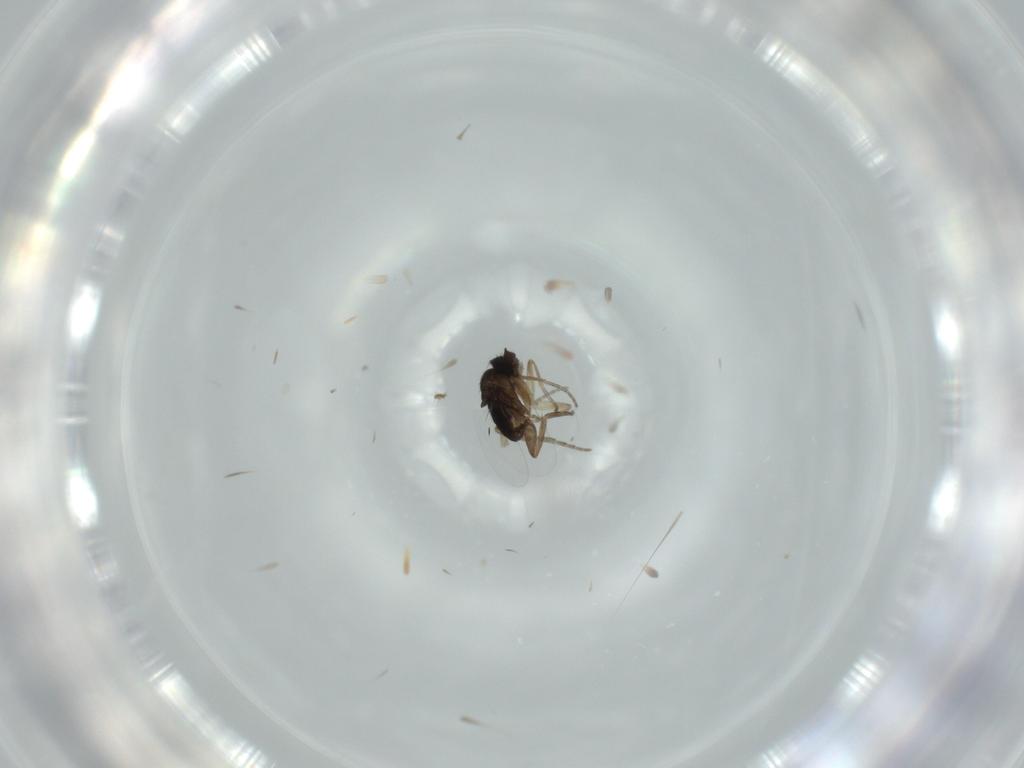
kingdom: Animalia
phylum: Arthropoda
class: Insecta
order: Diptera
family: Phoridae
